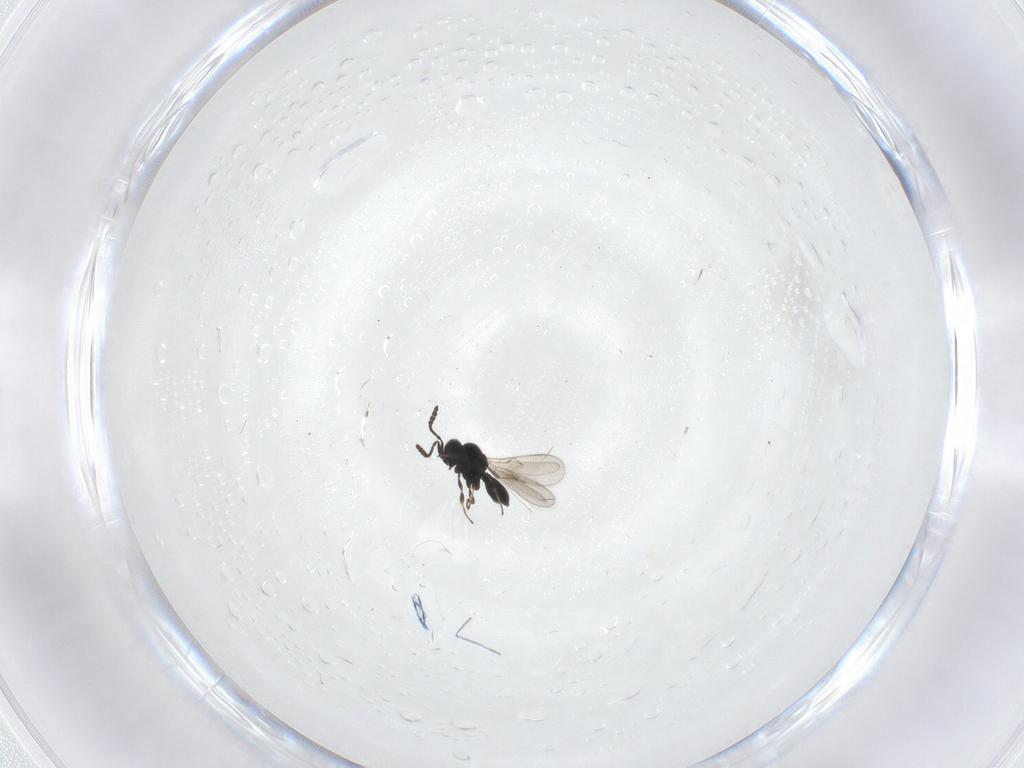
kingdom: Animalia
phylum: Arthropoda
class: Insecta
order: Hymenoptera
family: Scelionidae
